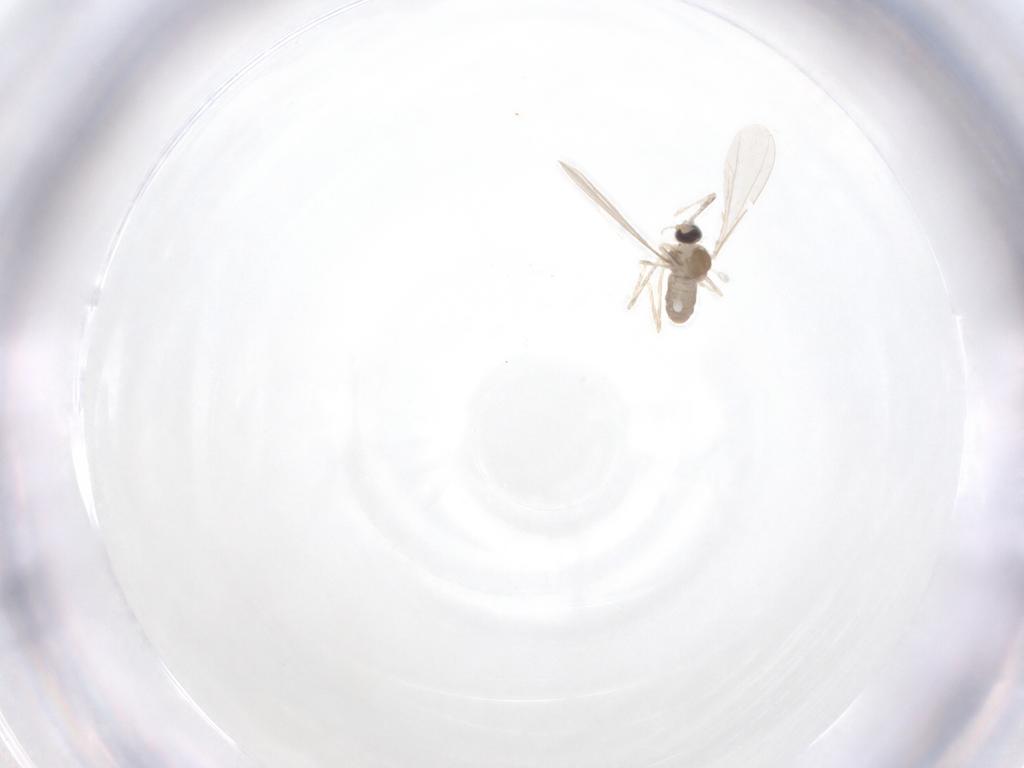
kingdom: Animalia
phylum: Arthropoda
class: Insecta
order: Diptera
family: Cecidomyiidae
